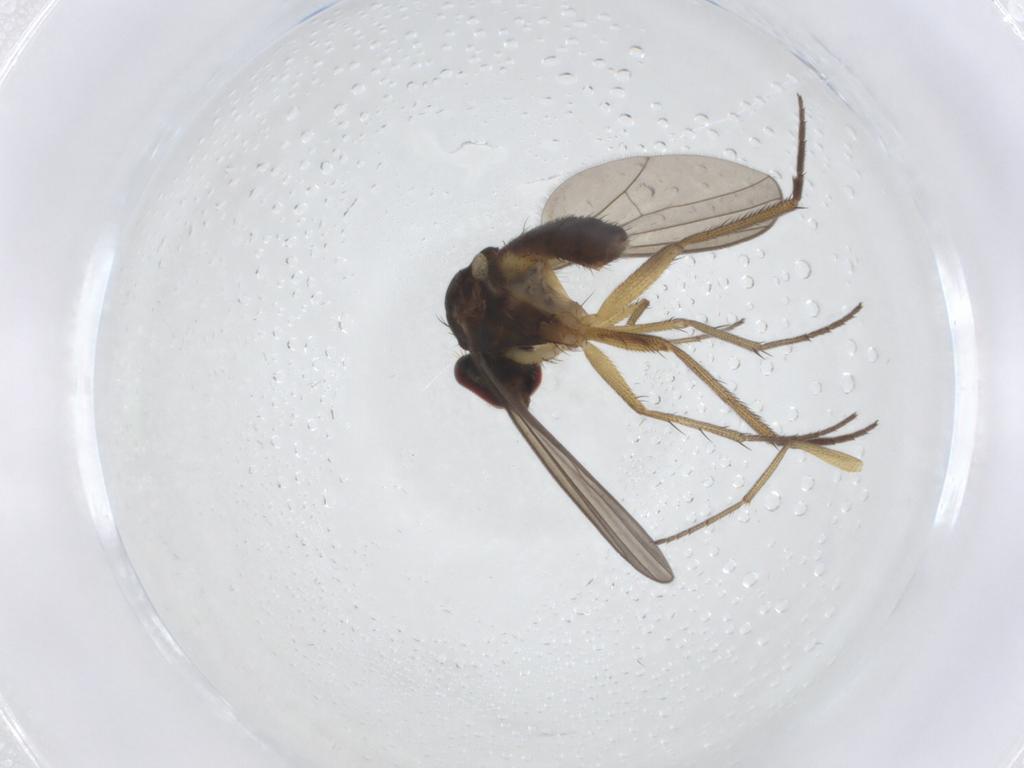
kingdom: Animalia
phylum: Arthropoda
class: Insecta
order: Diptera
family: Dolichopodidae
